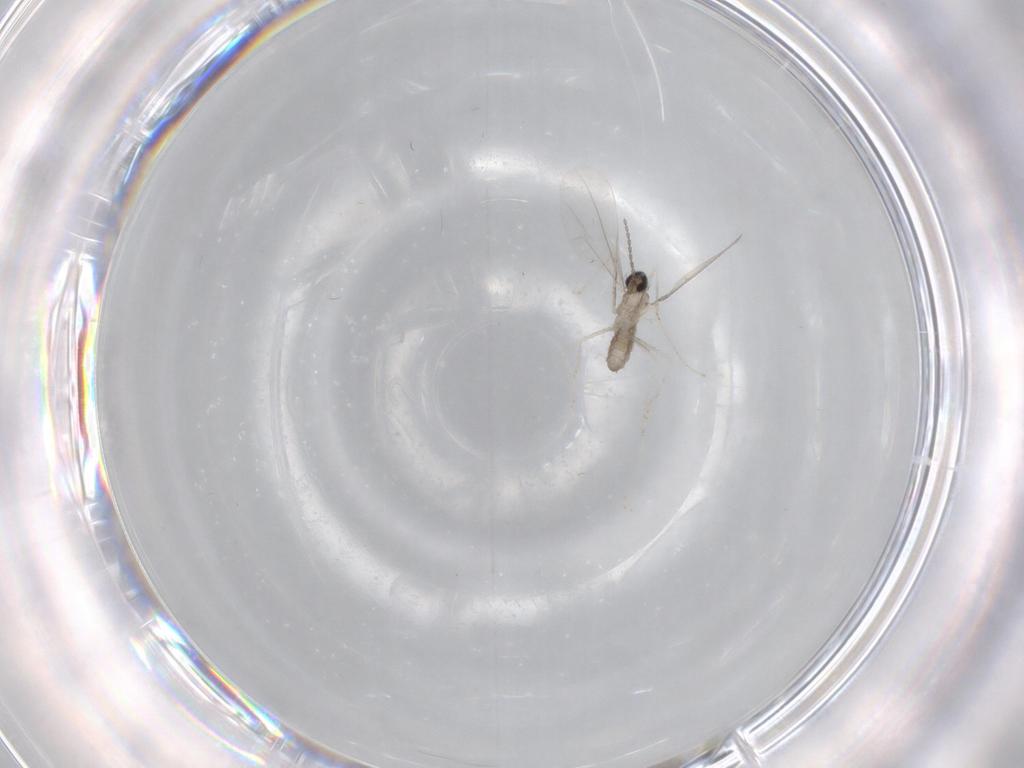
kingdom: Animalia
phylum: Arthropoda
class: Insecta
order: Diptera
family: Cecidomyiidae
